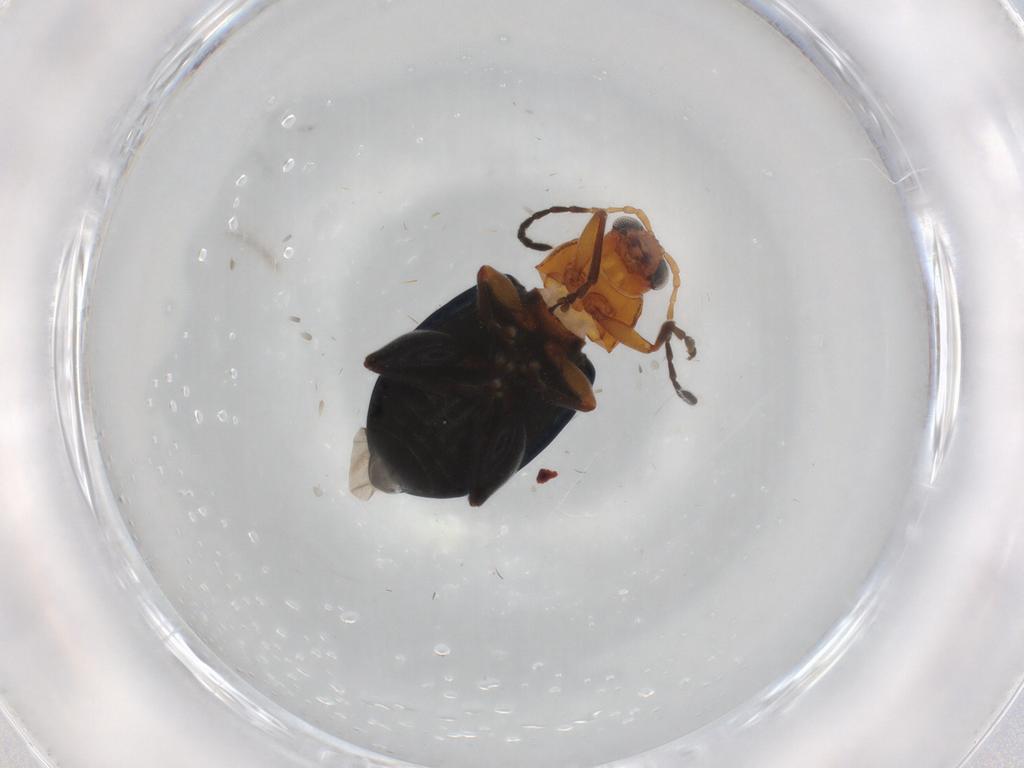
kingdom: Animalia
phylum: Arthropoda
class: Insecta
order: Coleoptera
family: Chrysomelidae
